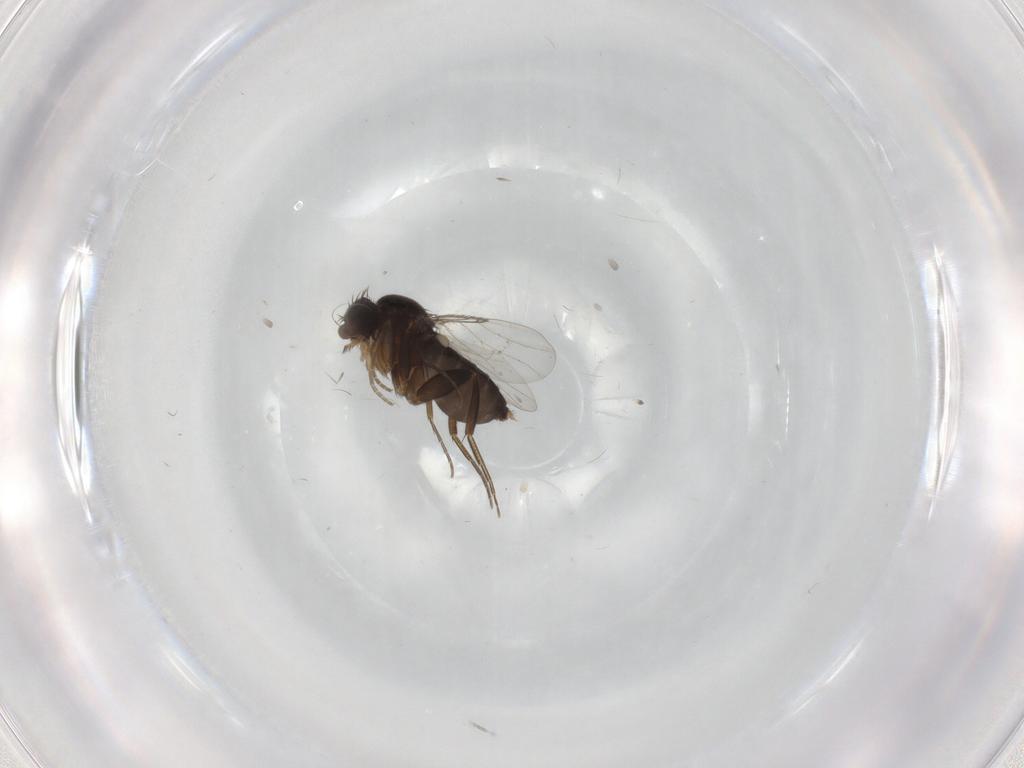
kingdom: Animalia
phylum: Arthropoda
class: Insecta
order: Diptera
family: Phoridae
